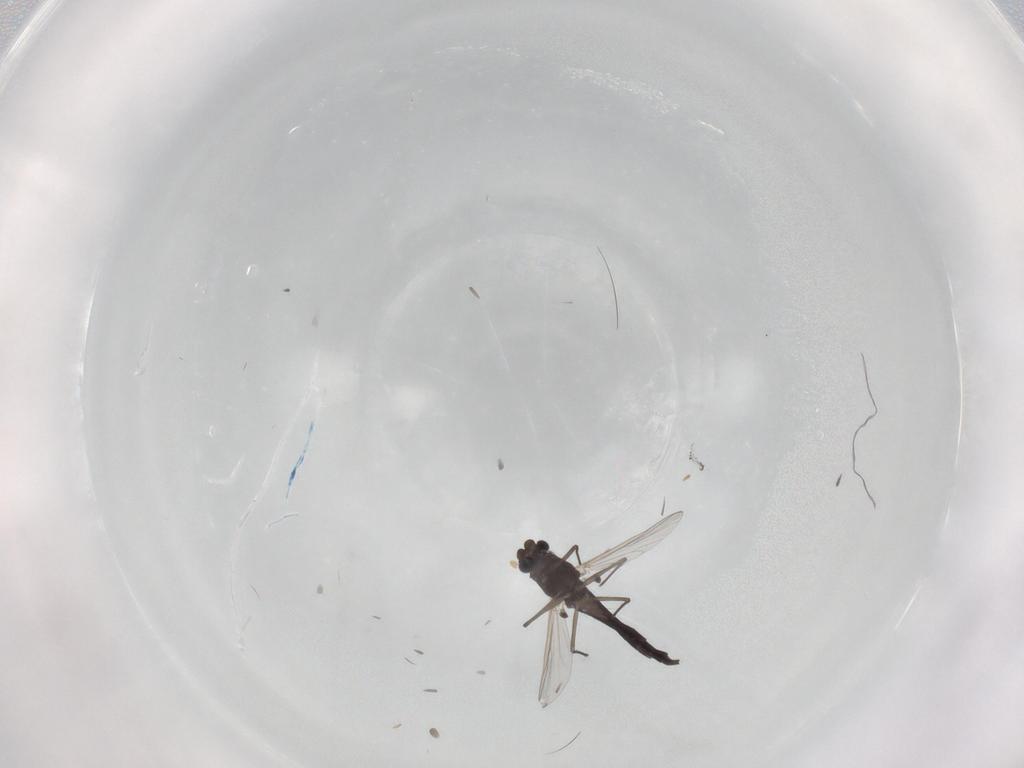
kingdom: Animalia
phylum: Arthropoda
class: Insecta
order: Diptera
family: Chironomidae
